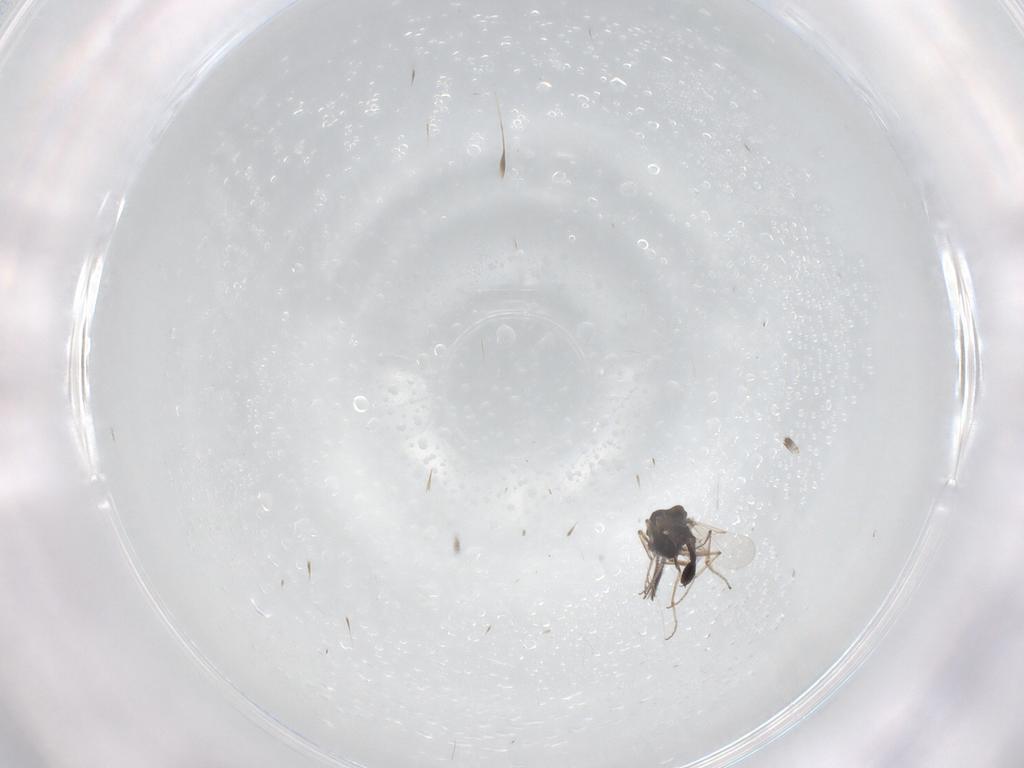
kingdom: Animalia
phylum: Arthropoda
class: Insecta
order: Diptera
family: Ceratopogonidae
